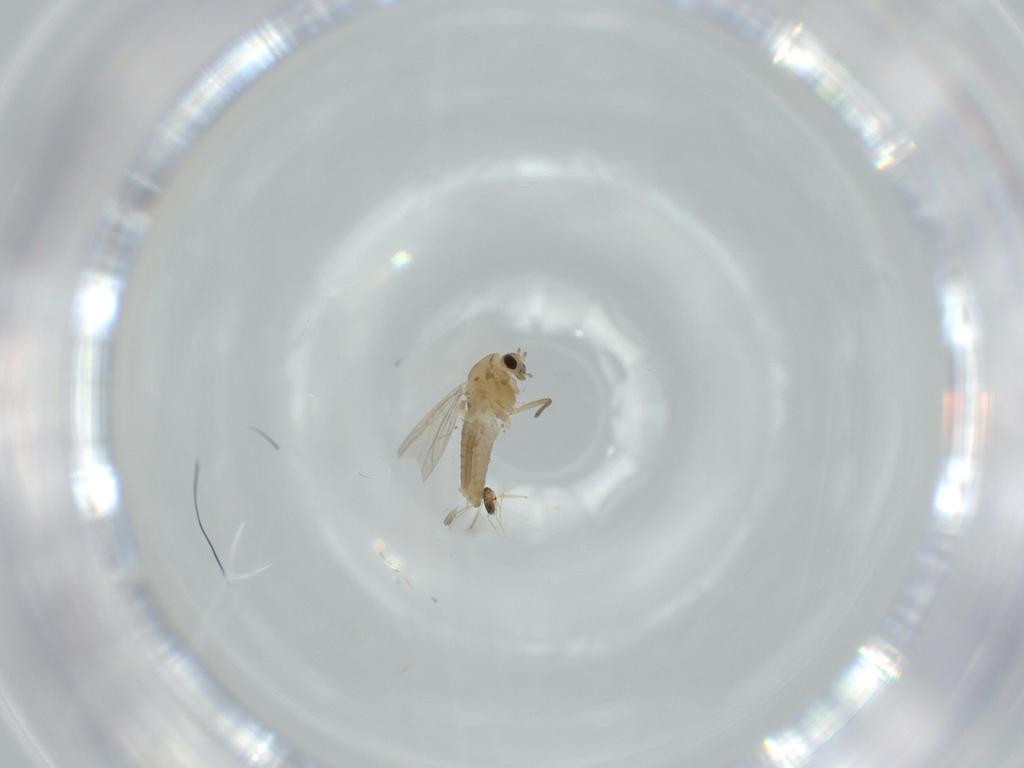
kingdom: Animalia
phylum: Arthropoda
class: Insecta
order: Diptera
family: Chironomidae
